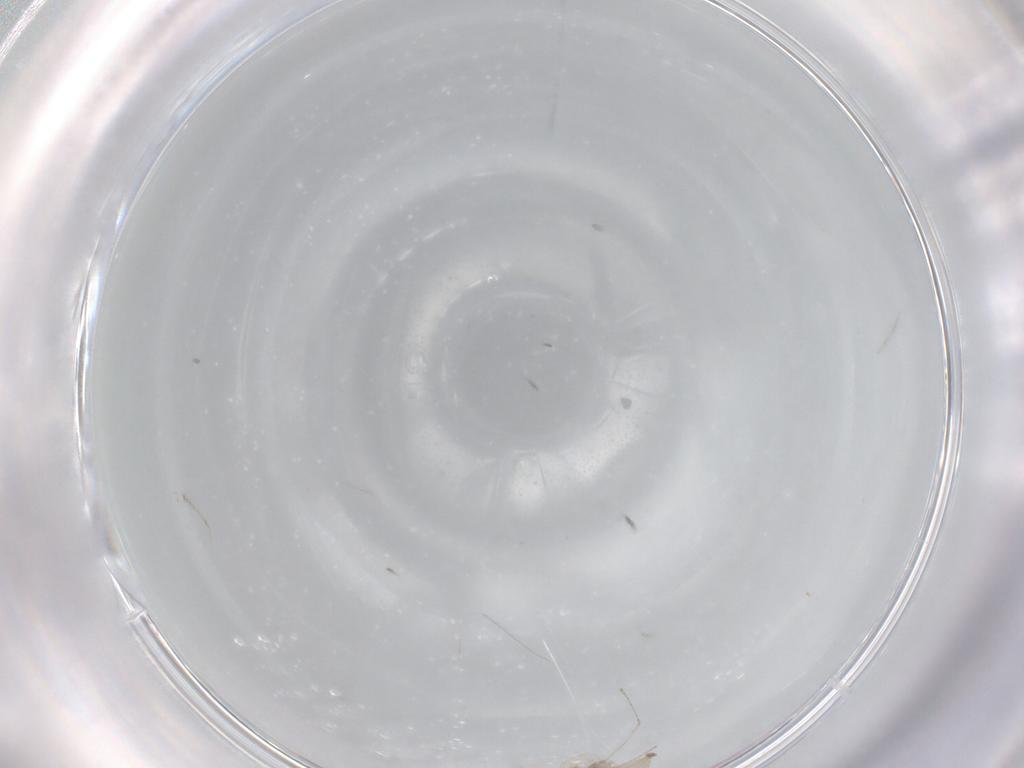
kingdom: Animalia
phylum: Arthropoda
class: Insecta
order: Diptera
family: Cecidomyiidae
